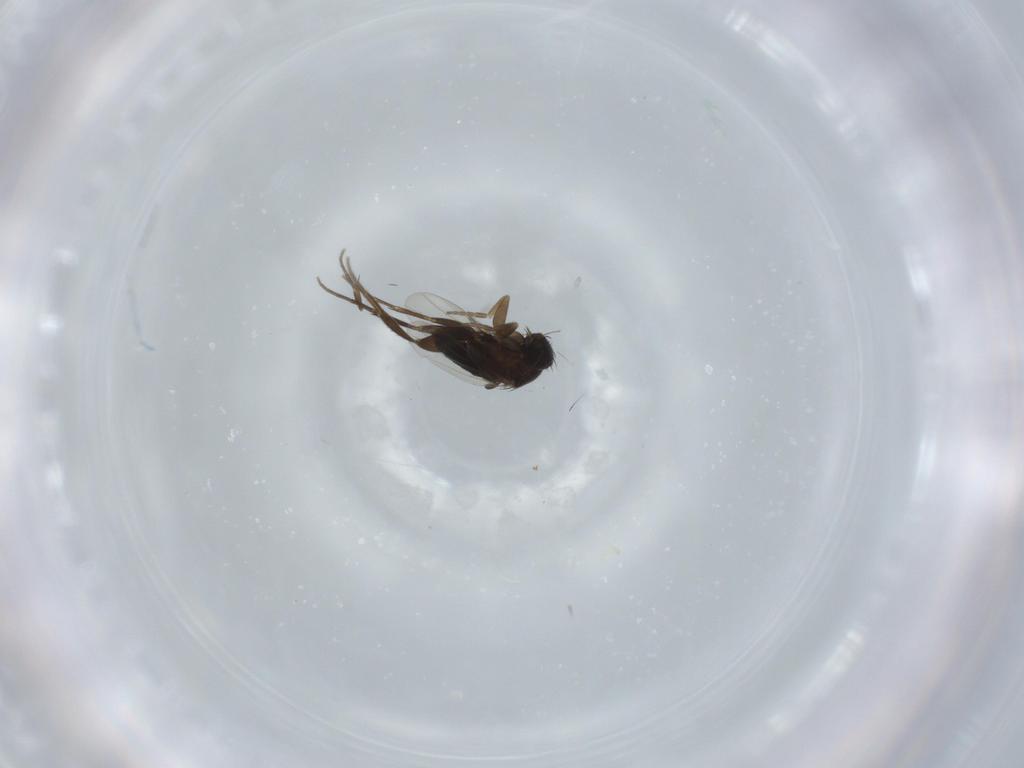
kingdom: Animalia
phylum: Arthropoda
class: Insecta
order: Diptera
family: Phoridae
